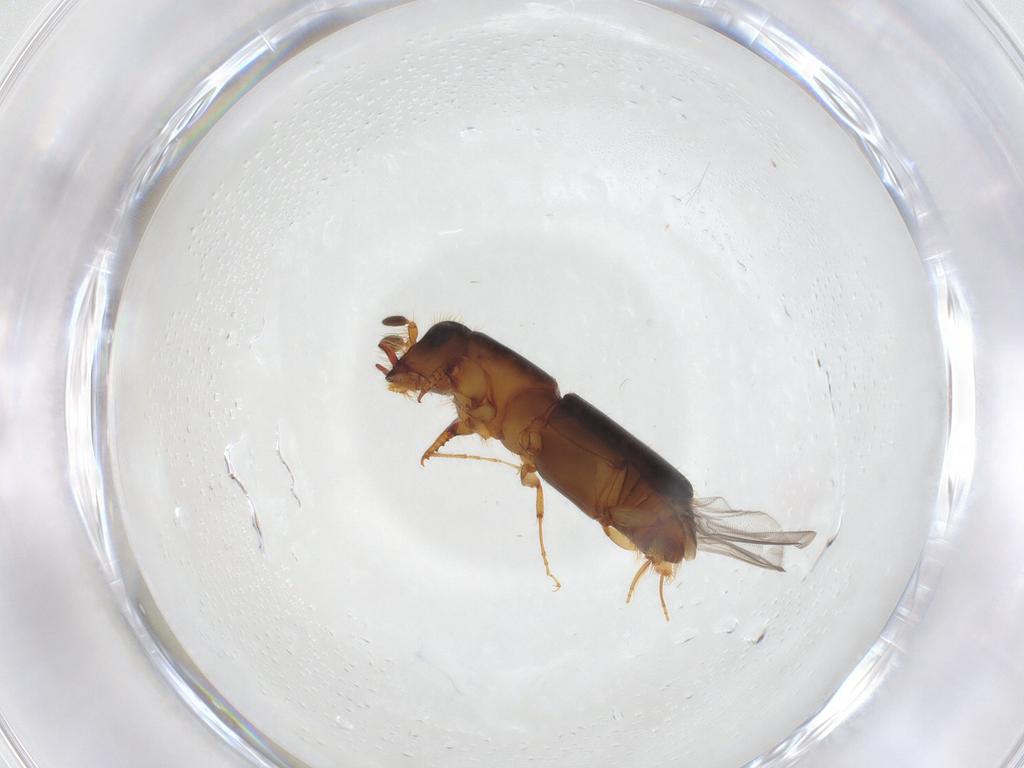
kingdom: Animalia
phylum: Arthropoda
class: Insecta
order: Coleoptera
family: Curculionidae
